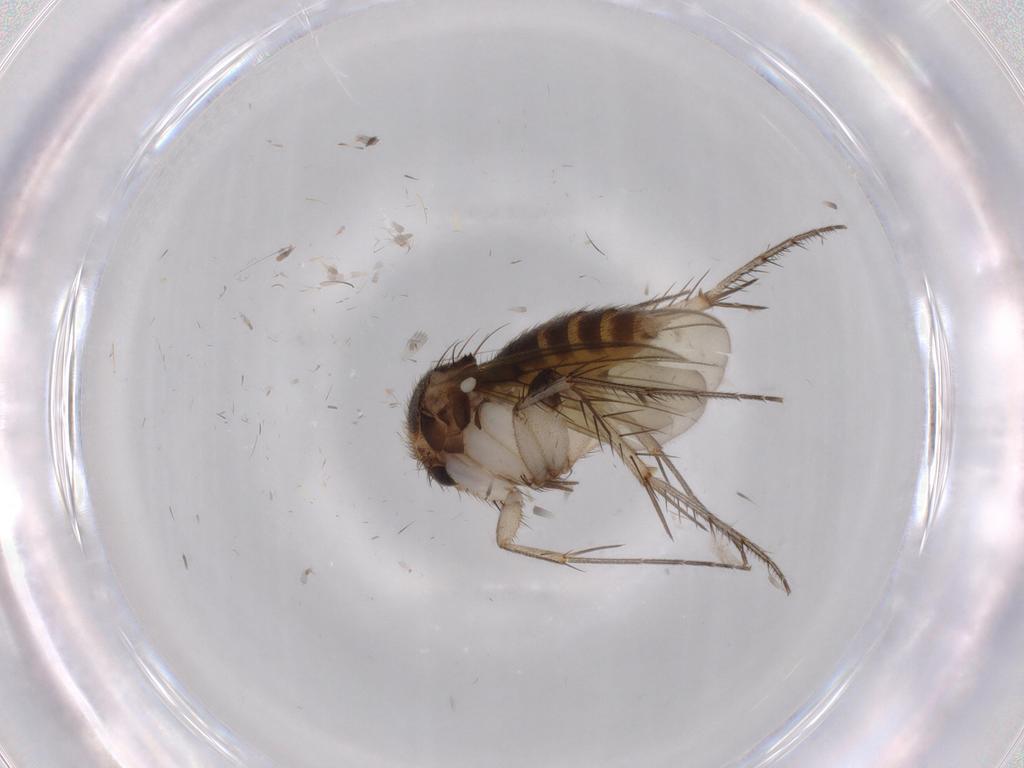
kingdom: Animalia
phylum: Arthropoda
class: Insecta
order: Diptera
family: Mycetophilidae
